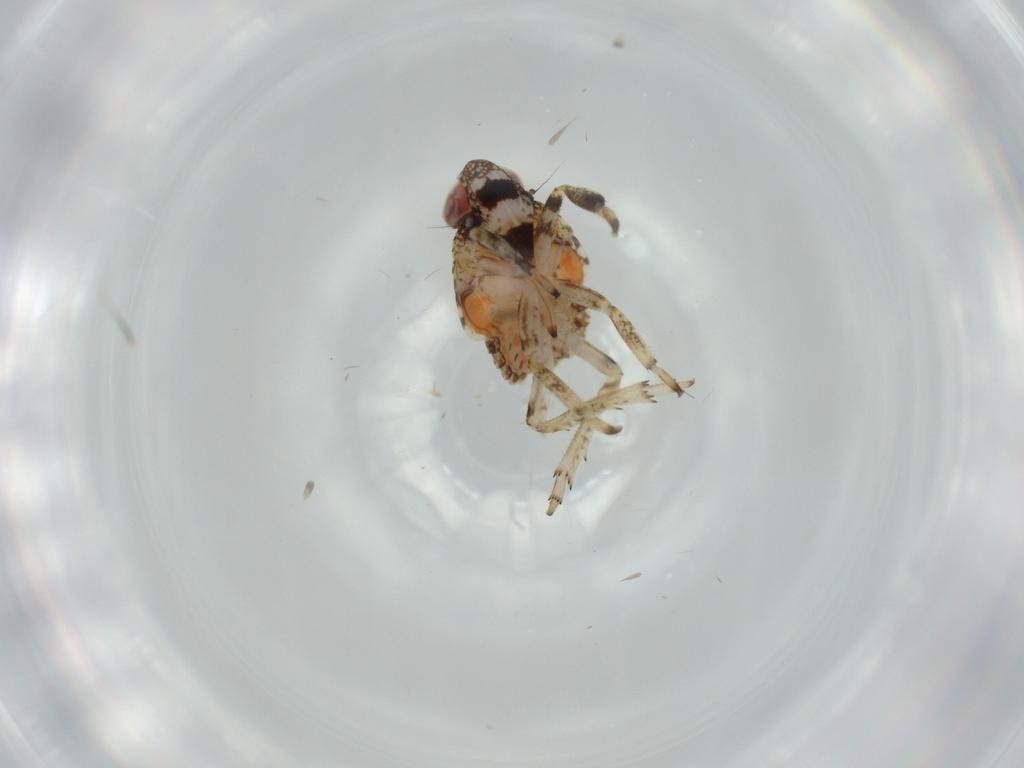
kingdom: Animalia
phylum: Arthropoda
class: Insecta
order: Hemiptera
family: Issidae
